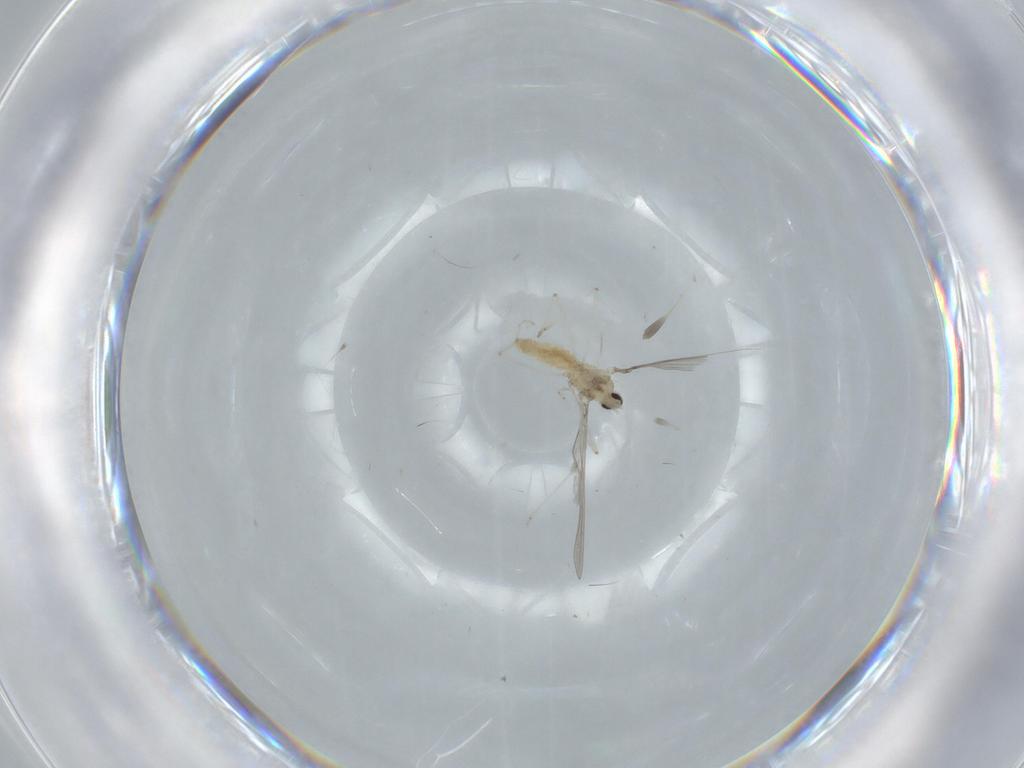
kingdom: Animalia
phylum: Arthropoda
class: Insecta
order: Diptera
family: Cecidomyiidae
